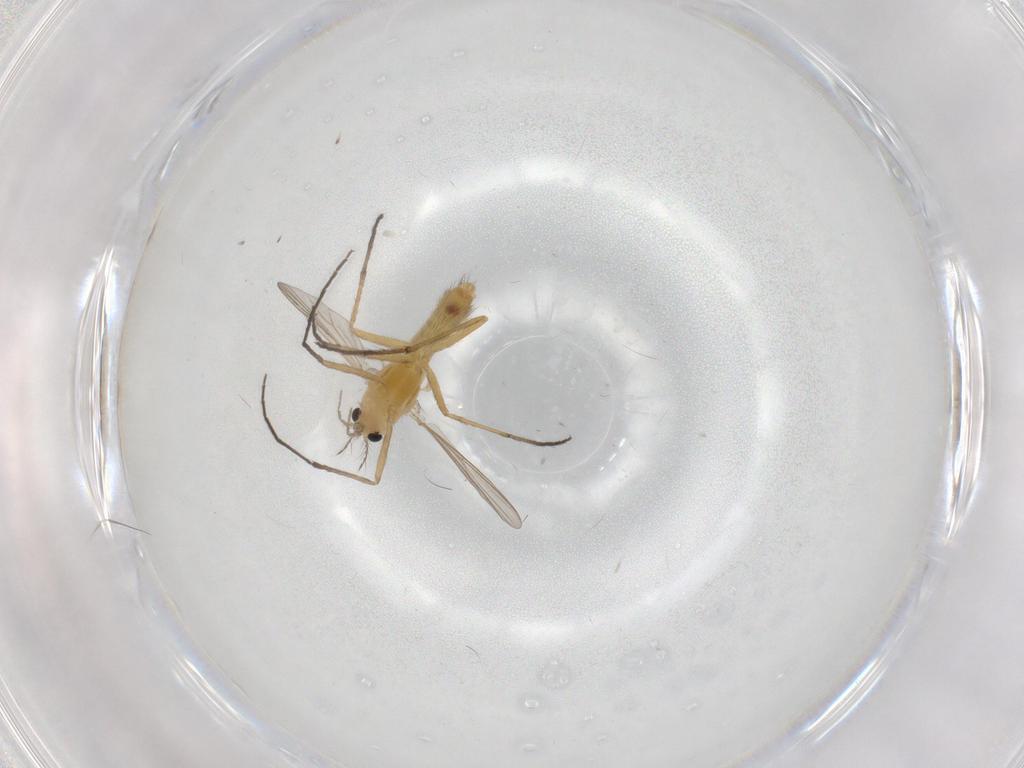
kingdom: Animalia
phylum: Arthropoda
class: Insecta
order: Diptera
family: Chironomidae
